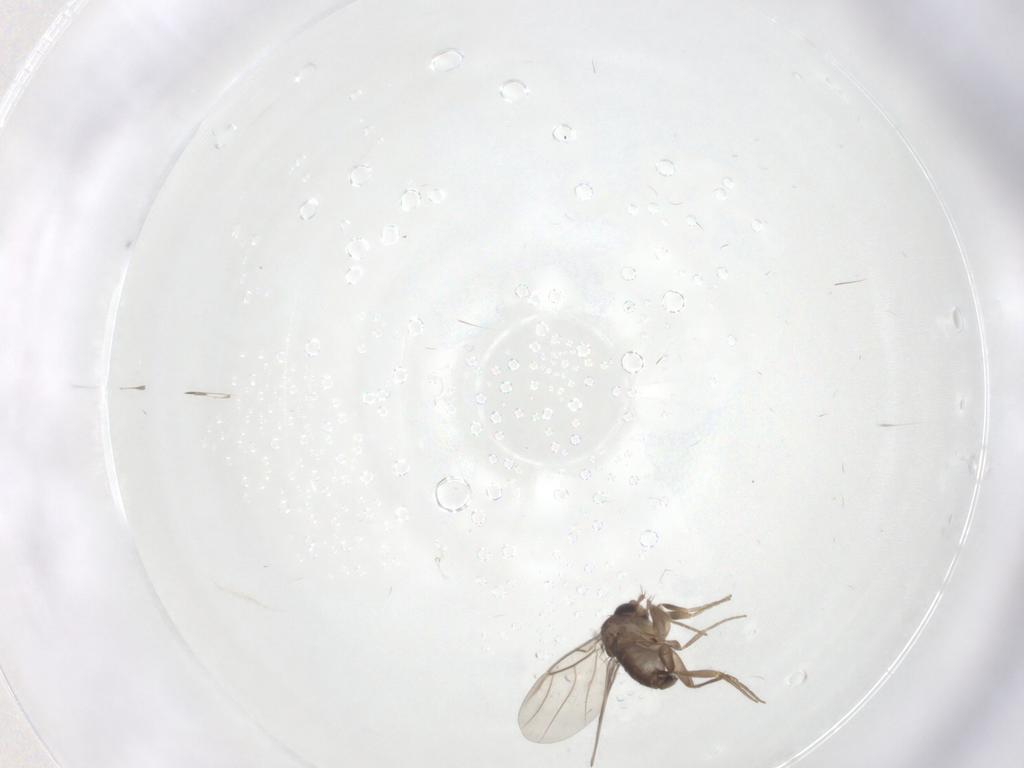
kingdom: Animalia
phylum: Arthropoda
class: Insecta
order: Diptera
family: Phoridae
